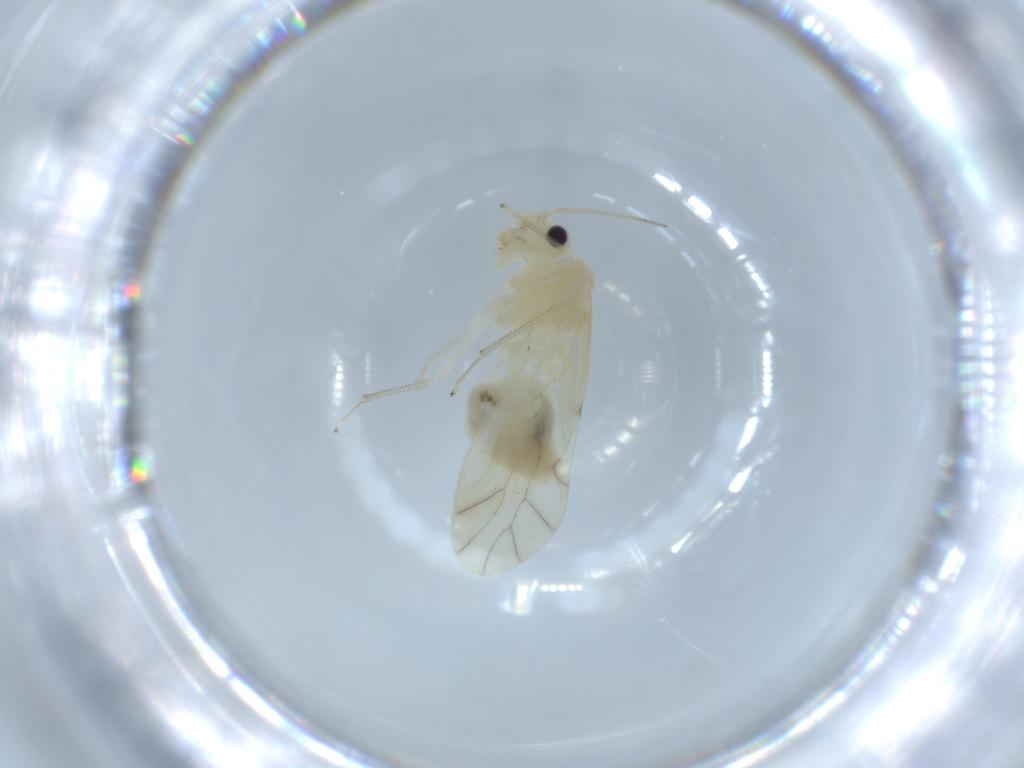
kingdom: Animalia
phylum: Arthropoda
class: Insecta
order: Psocodea
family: Caeciliusidae
